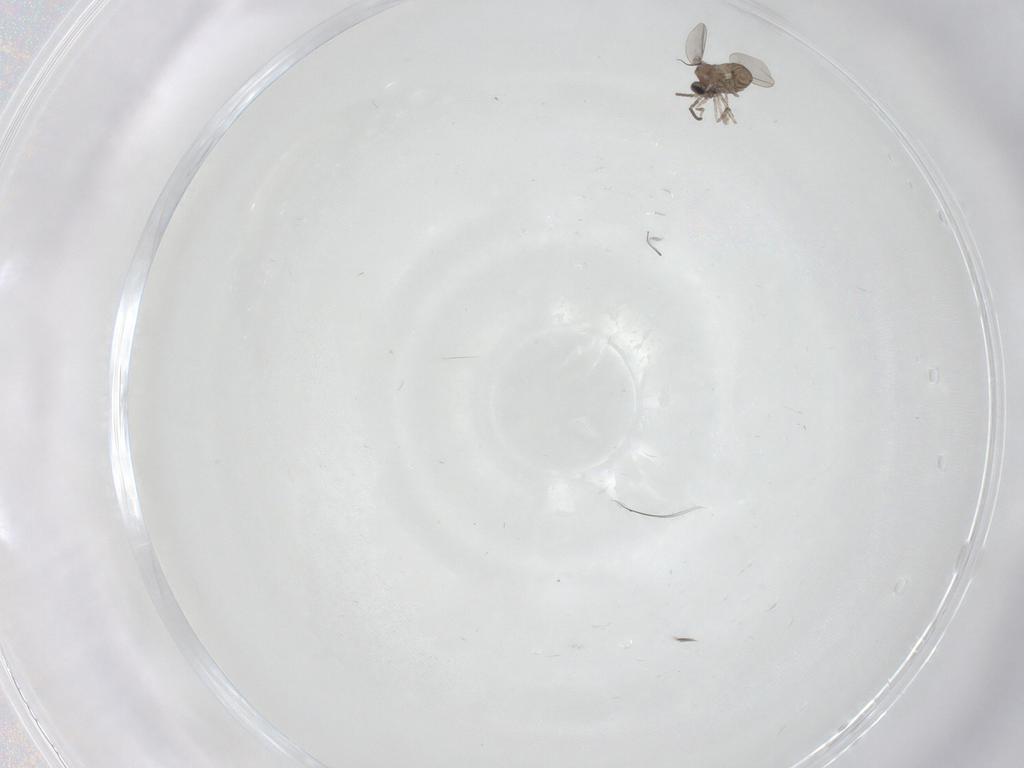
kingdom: Animalia
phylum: Arthropoda
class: Insecta
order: Diptera
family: Cecidomyiidae
